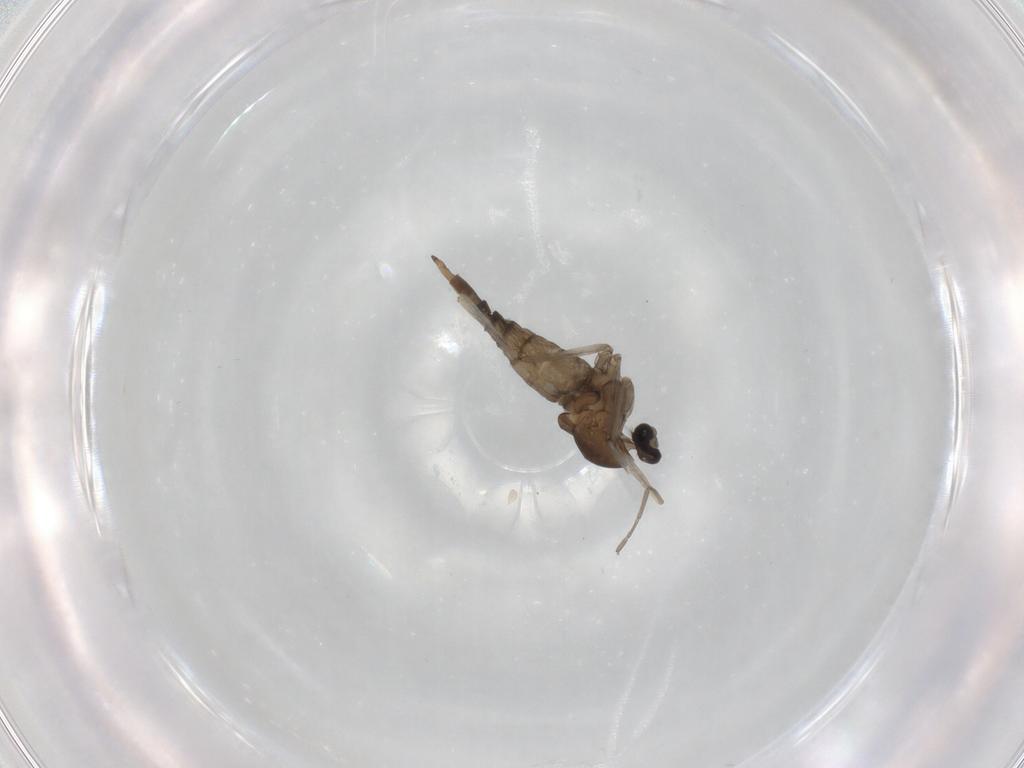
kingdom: Animalia
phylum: Arthropoda
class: Insecta
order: Diptera
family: Cecidomyiidae
